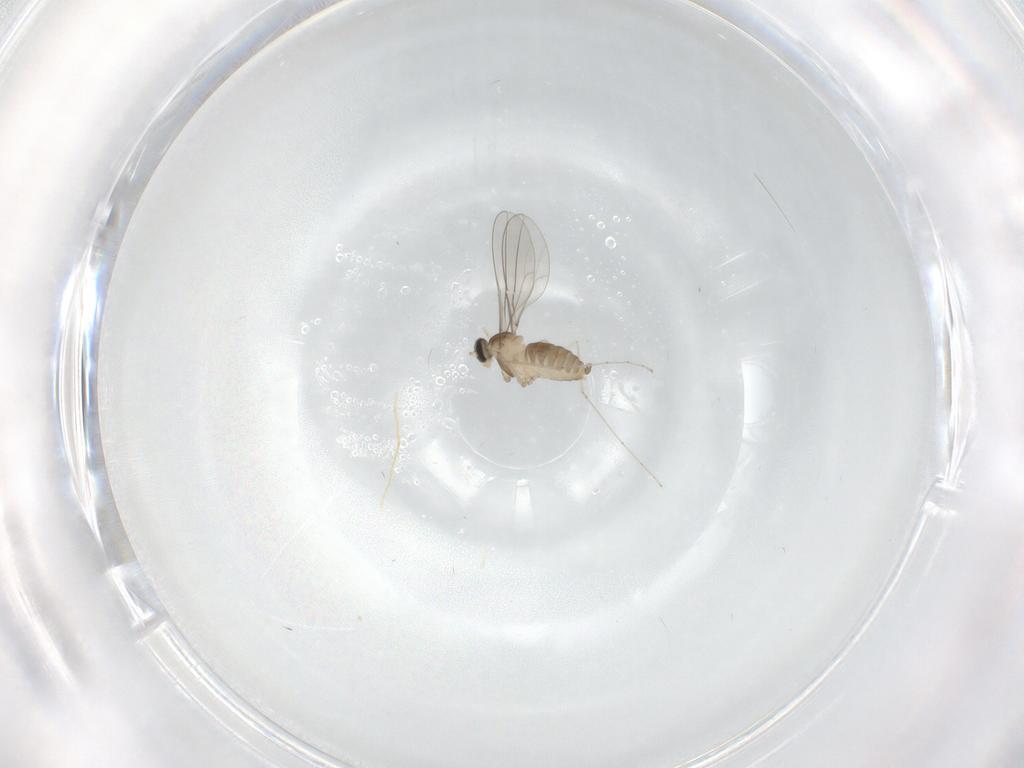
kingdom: Animalia
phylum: Arthropoda
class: Insecta
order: Diptera
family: Cecidomyiidae
